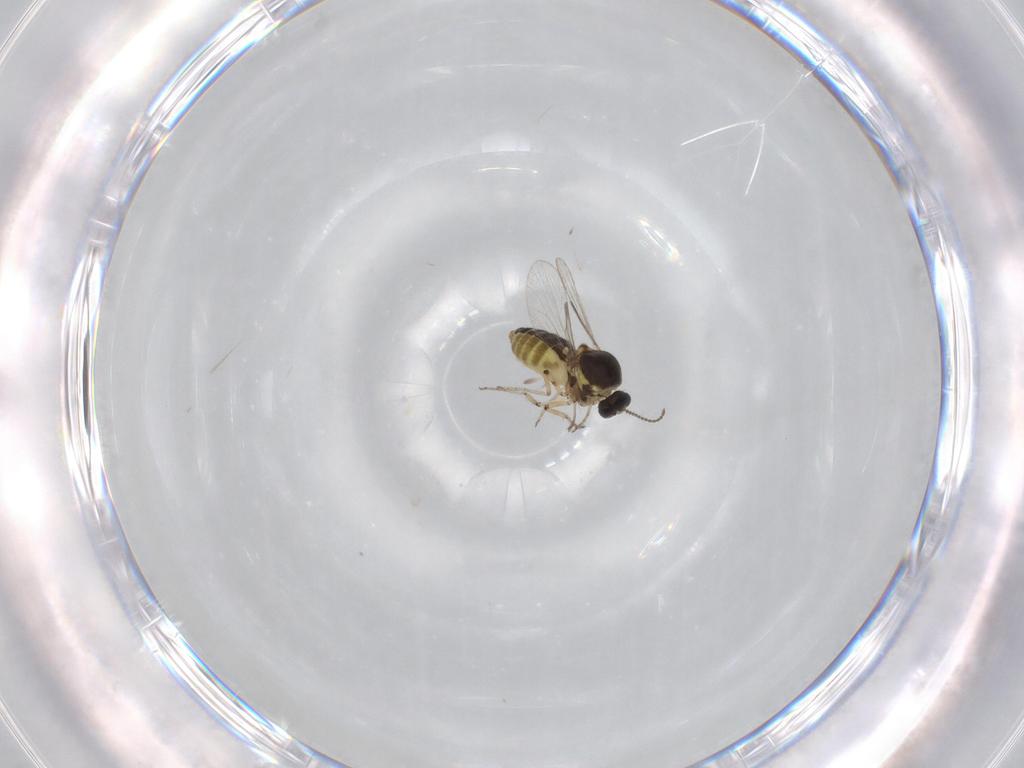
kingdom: Animalia
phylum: Arthropoda
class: Insecta
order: Diptera
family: Ceratopogonidae
